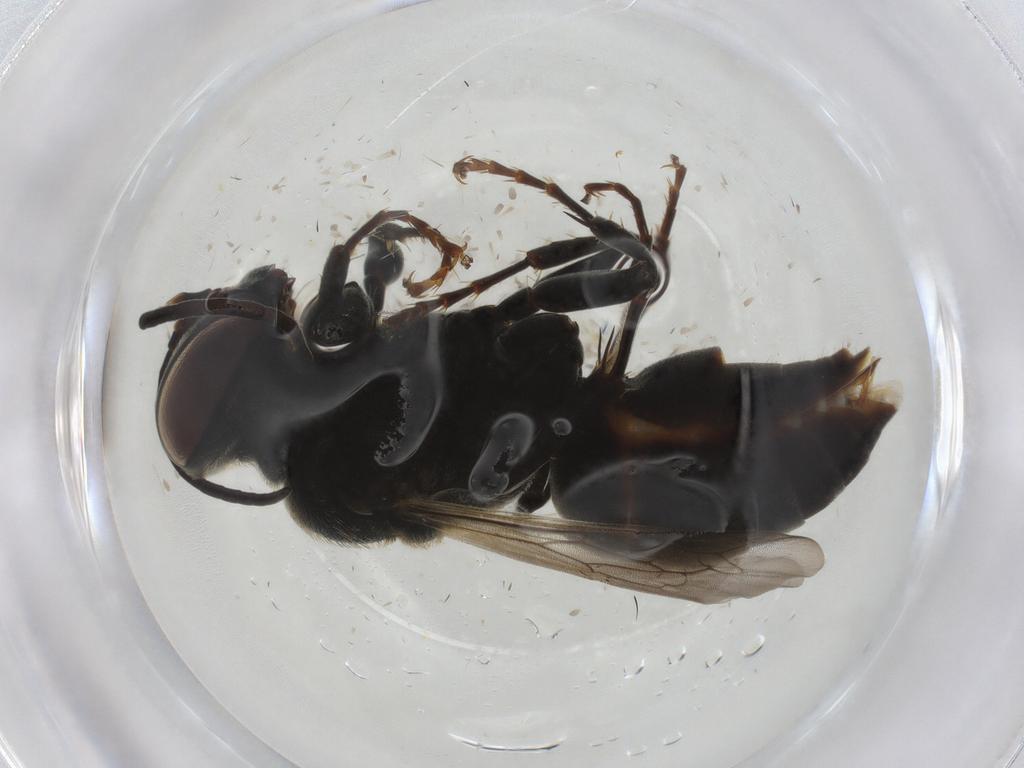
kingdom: Animalia
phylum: Arthropoda
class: Insecta
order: Hymenoptera
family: Crabronidae
